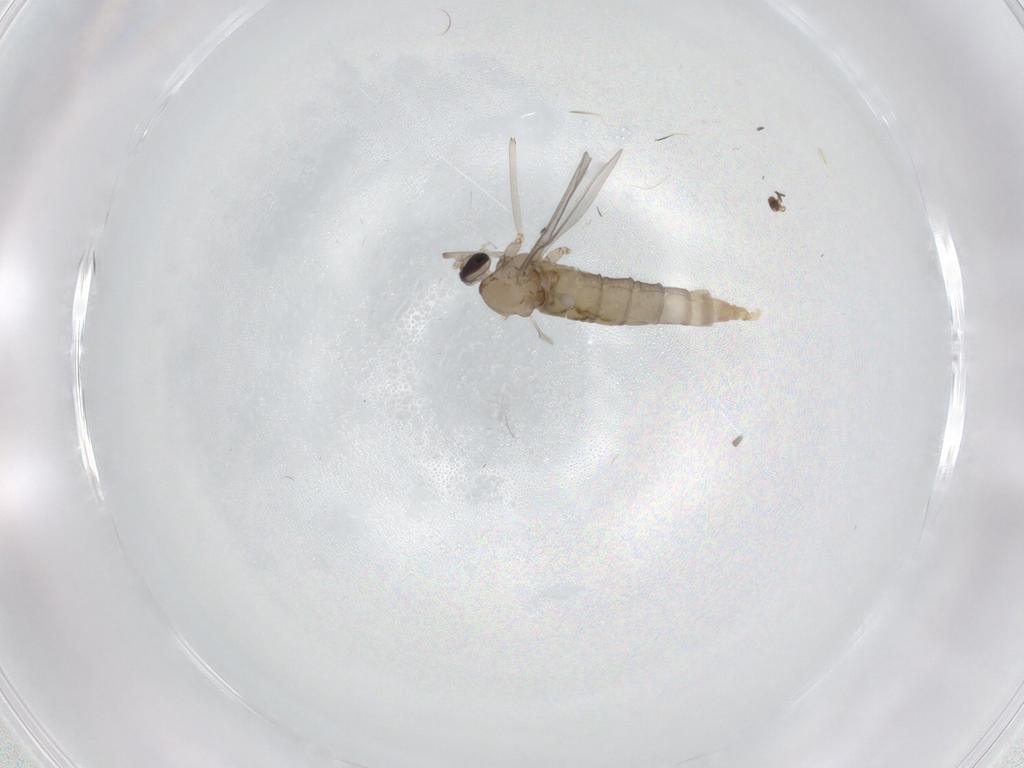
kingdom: Animalia
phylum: Arthropoda
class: Insecta
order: Diptera
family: Cecidomyiidae
